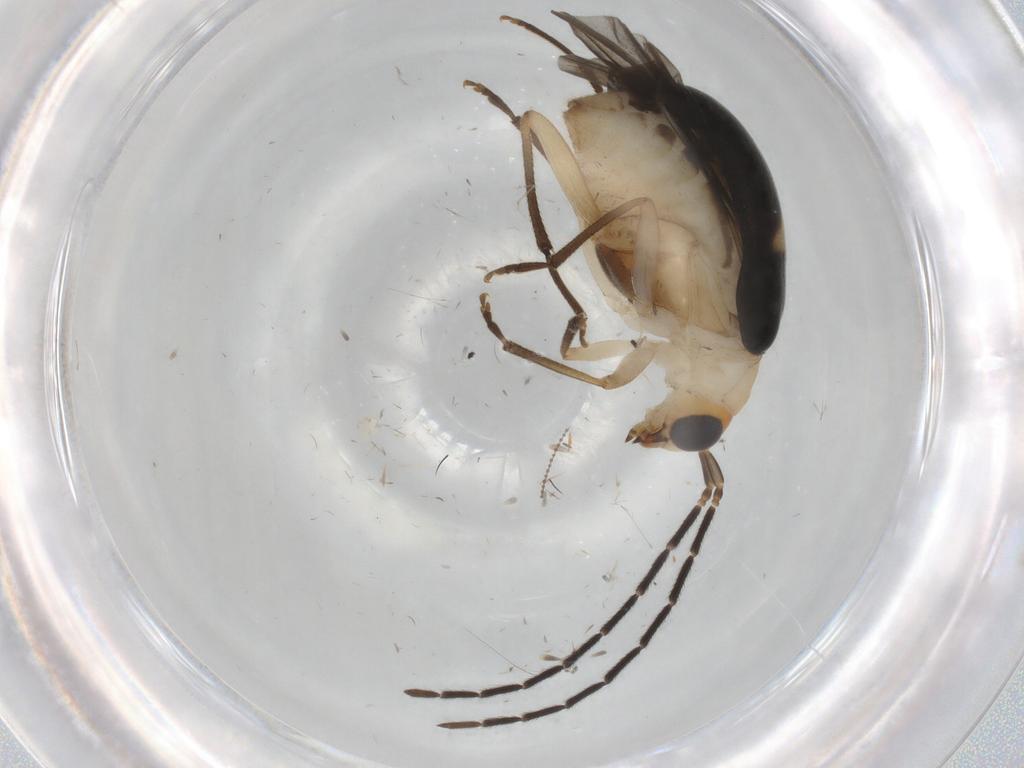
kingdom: Animalia
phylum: Arthropoda
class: Insecta
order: Coleoptera
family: Chrysomelidae
